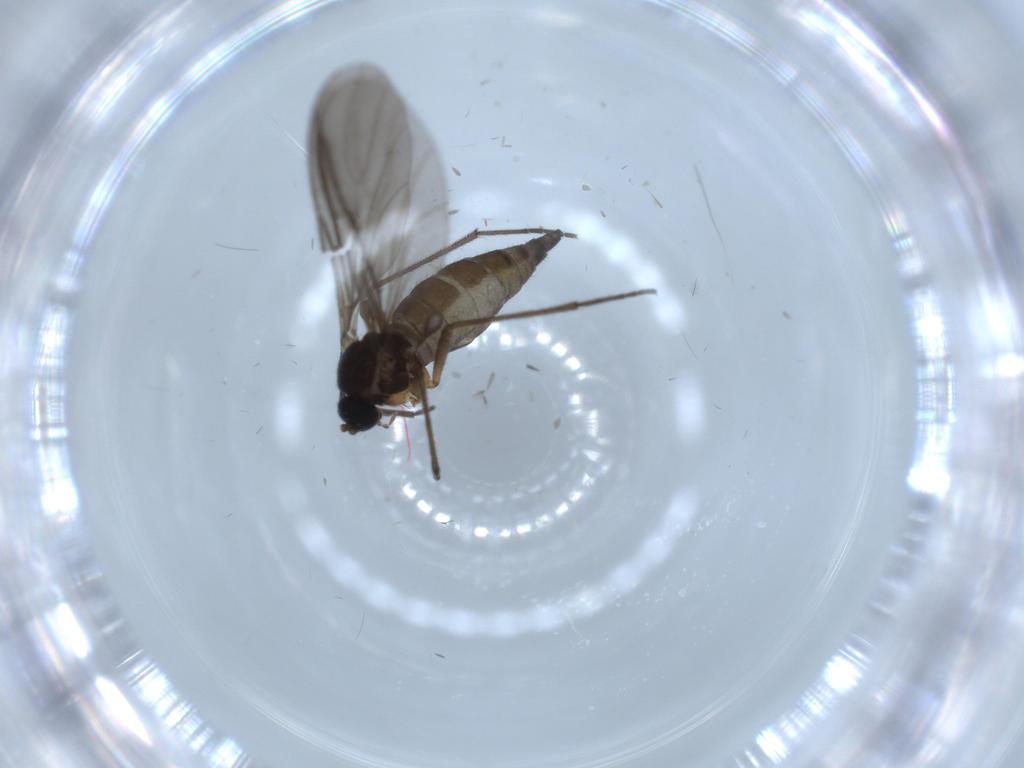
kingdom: Animalia
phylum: Arthropoda
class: Insecta
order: Diptera
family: Sciaridae
